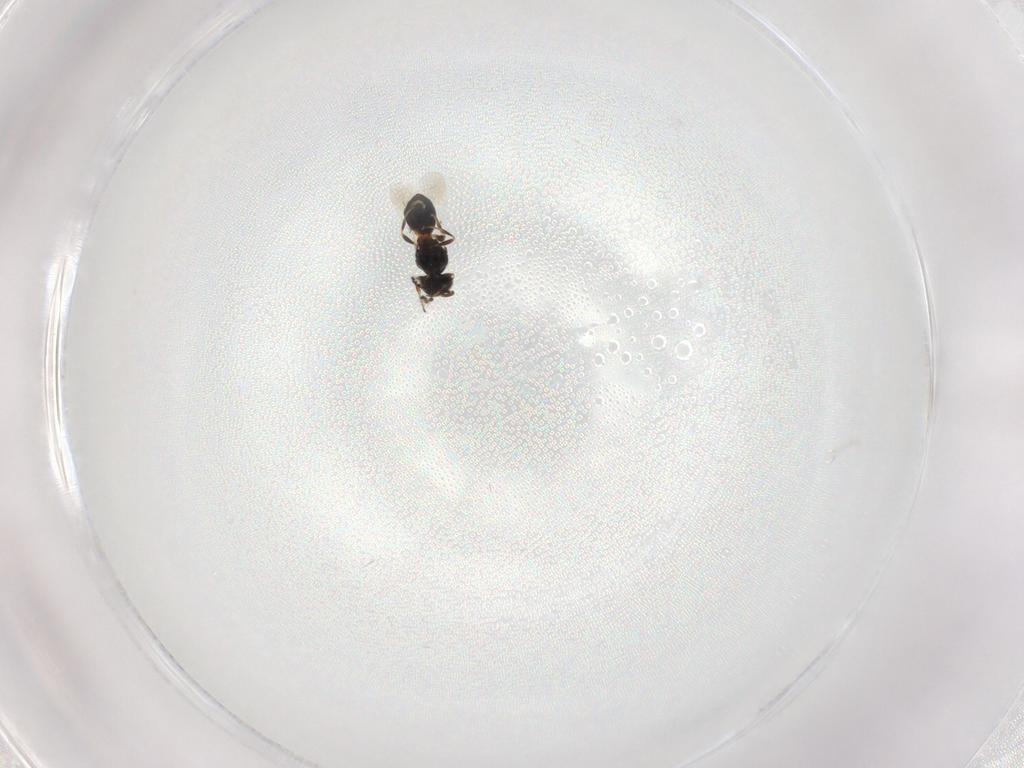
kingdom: Animalia
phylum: Arthropoda
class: Insecta
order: Hymenoptera
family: Platygastridae
